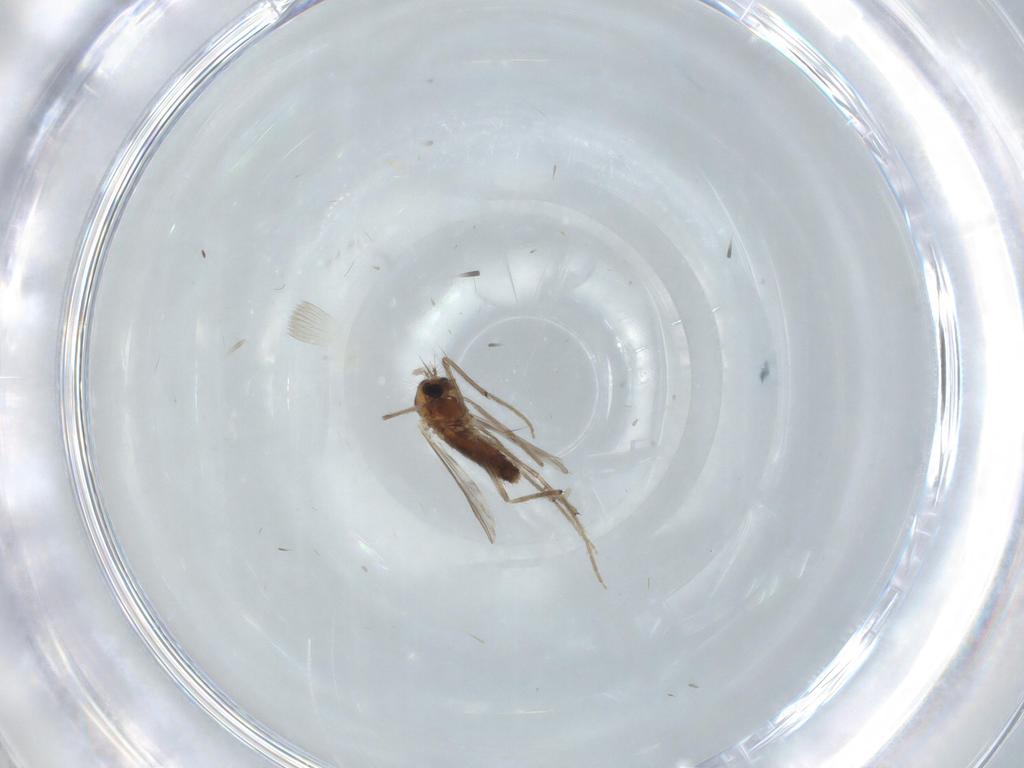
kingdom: Animalia
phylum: Arthropoda
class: Insecta
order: Diptera
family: Chironomidae
